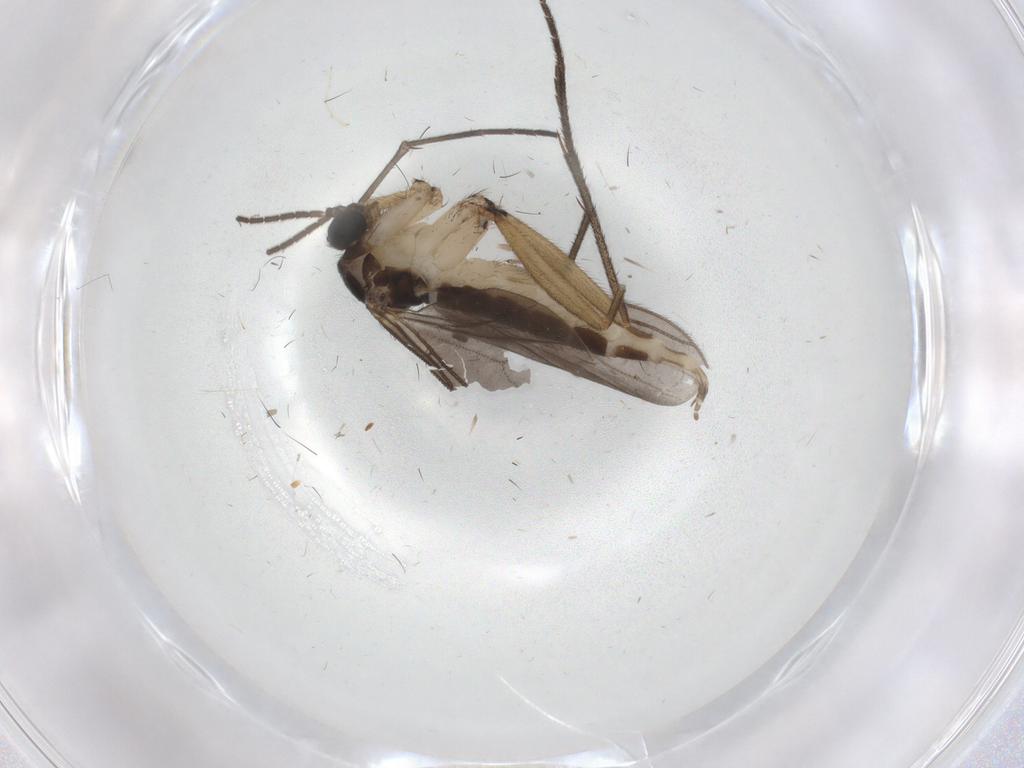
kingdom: Animalia
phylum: Arthropoda
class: Insecta
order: Diptera
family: Sciaridae
